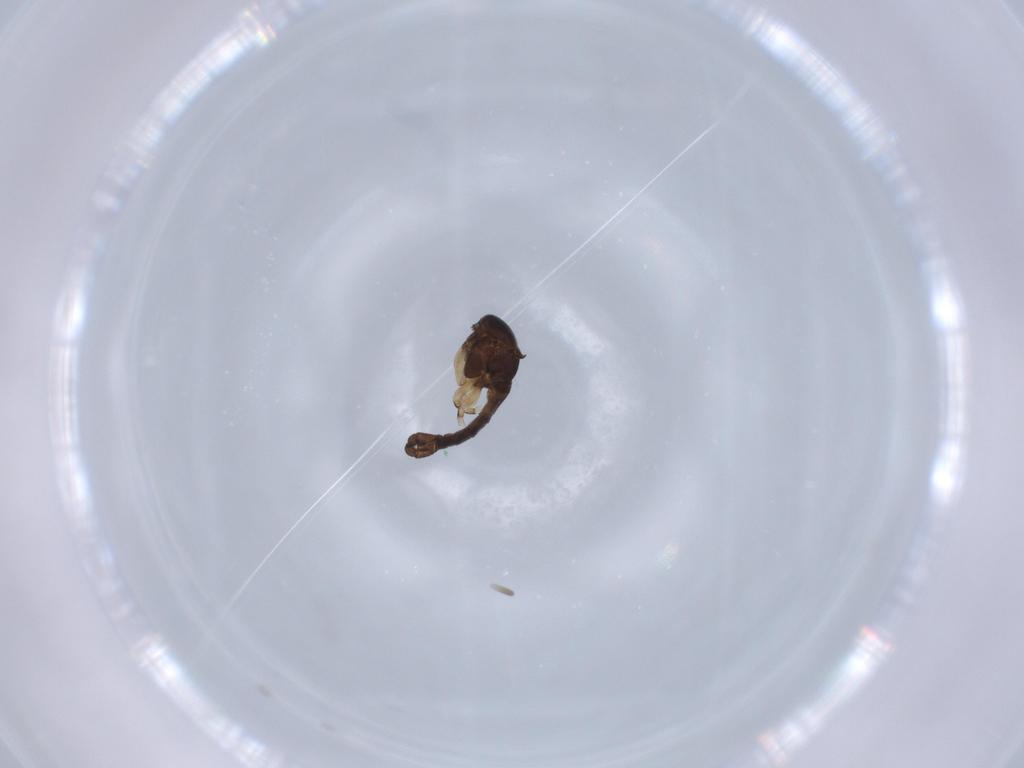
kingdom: Animalia
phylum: Arthropoda
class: Insecta
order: Diptera
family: Sciaridae
